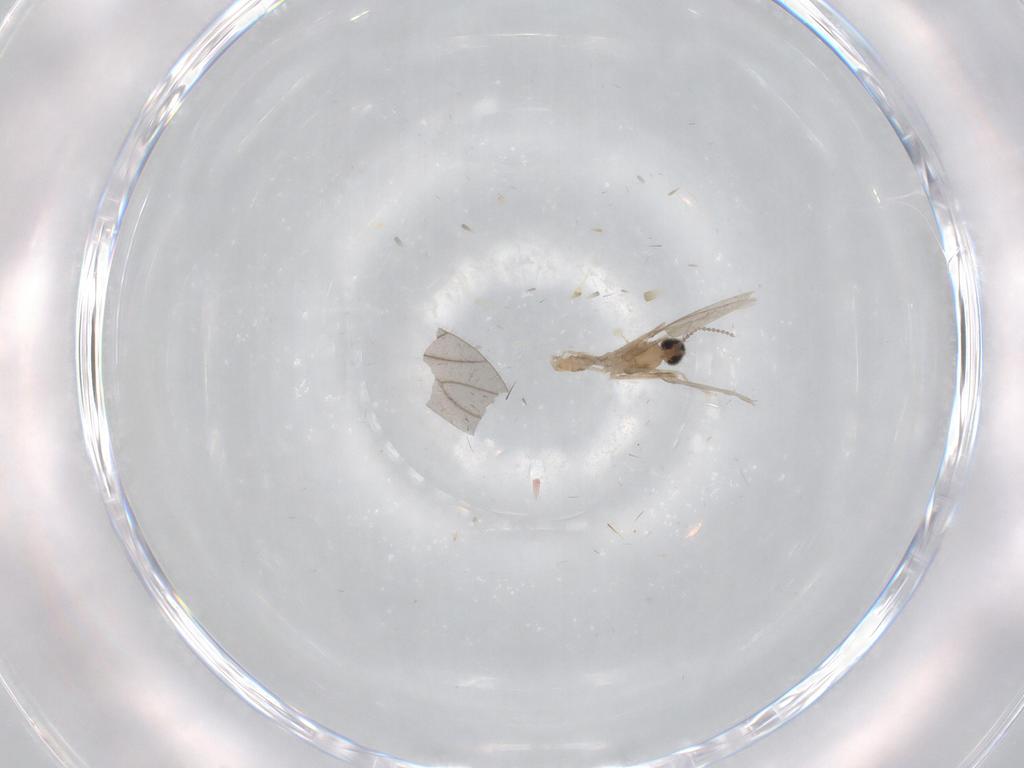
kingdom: Animalia
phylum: Arthropoda
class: Insecta
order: Diptera
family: Cecidomyiidae
